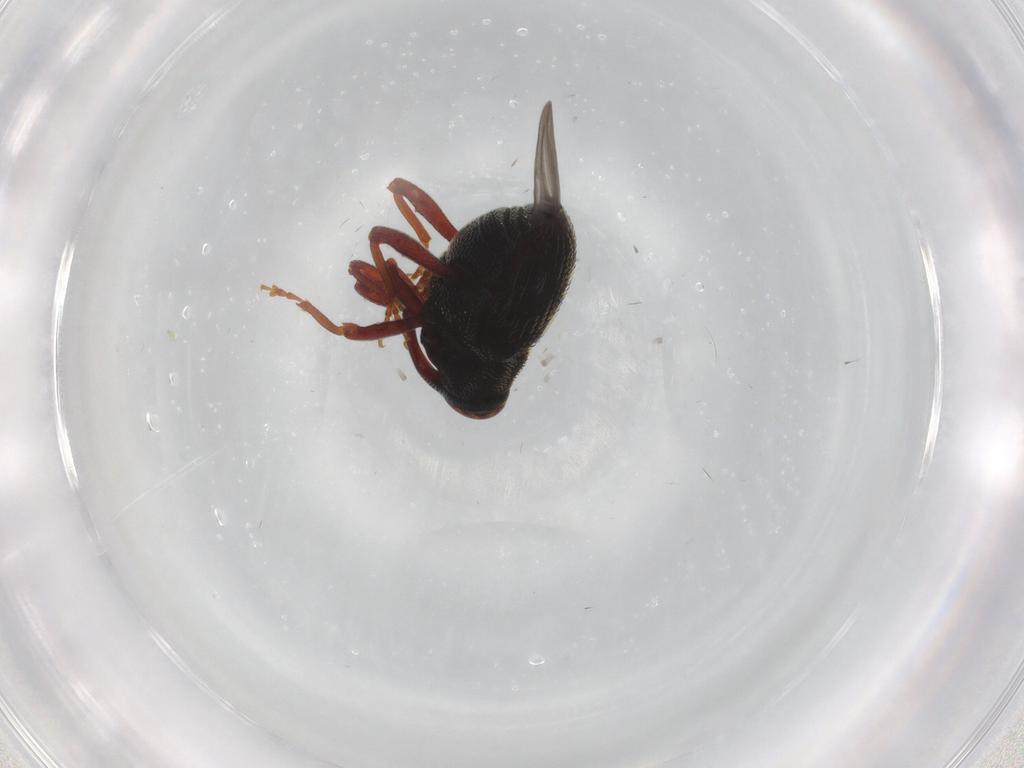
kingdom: Animalia
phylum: Arthropoda
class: Insecta
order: Coleoptera
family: Curculionidae
